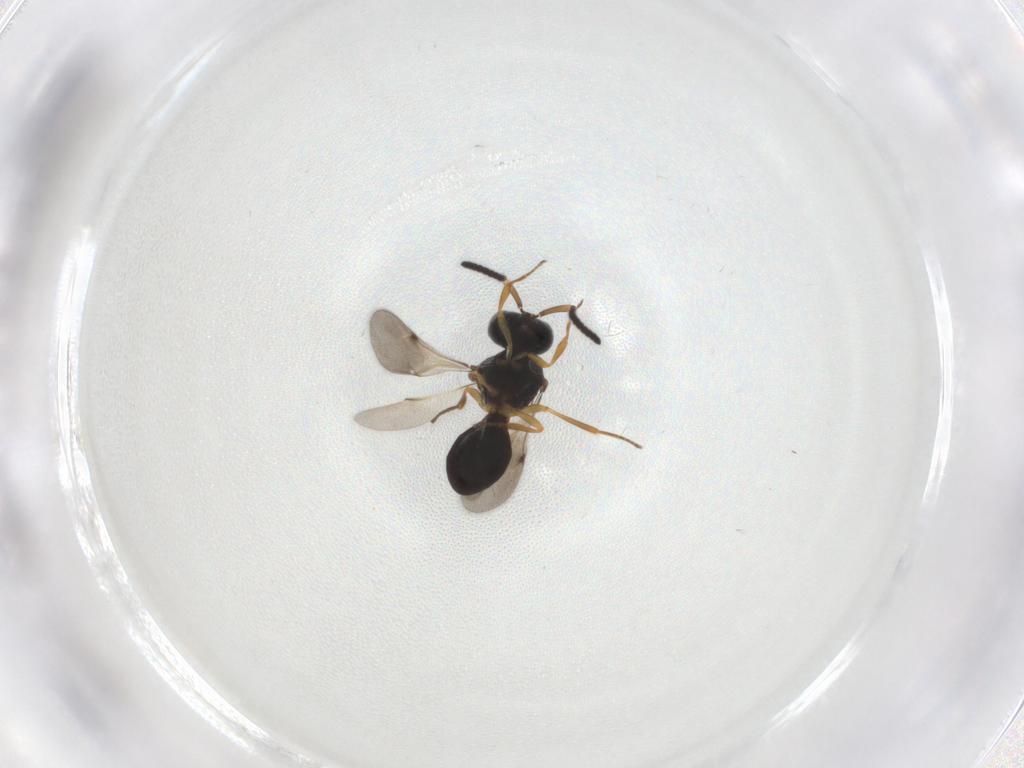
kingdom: Animalia
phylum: Arthropoda
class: Insecta
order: Hymenoptera
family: Scelionidae
